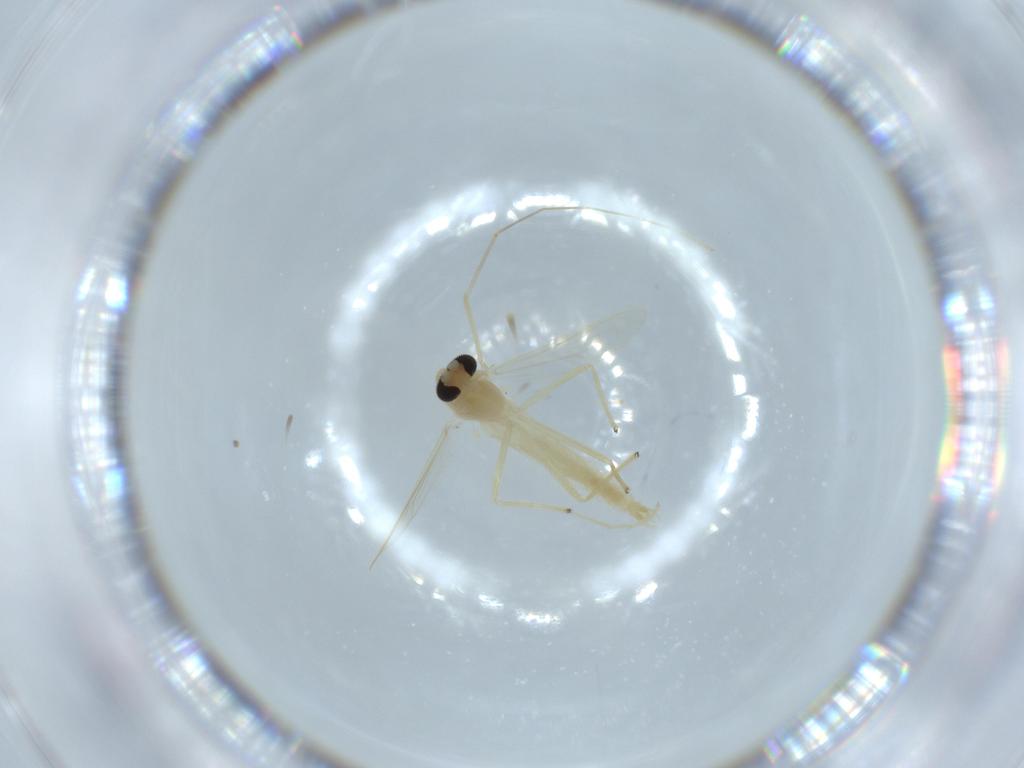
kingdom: Animalia
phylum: Arthropoda
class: Insecta
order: Diptera
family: Chironomidae
